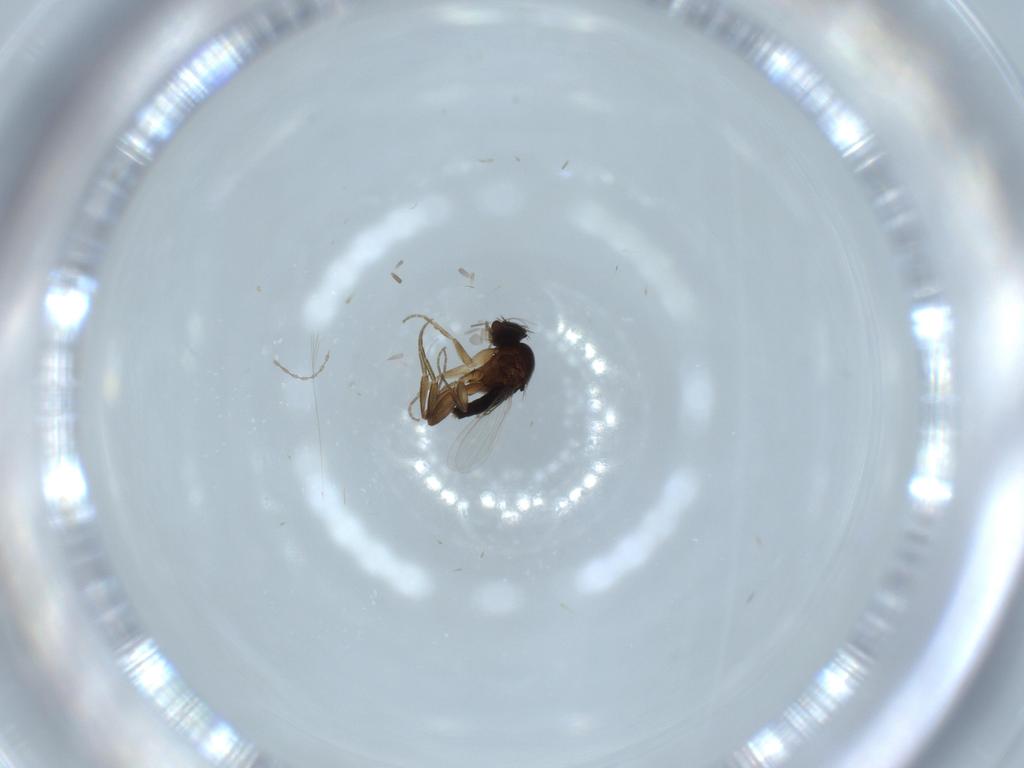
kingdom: Animalia
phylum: Arthropoda
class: Insecta
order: Diptera
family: Phoridae
